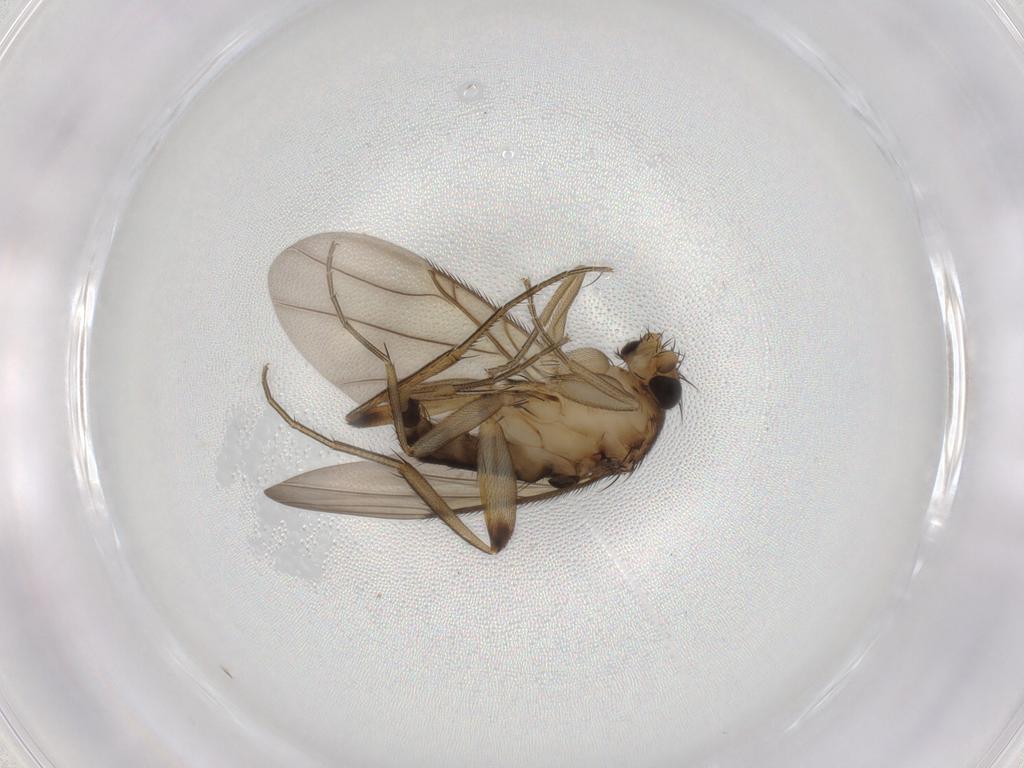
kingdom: Animalia
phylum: Arthropoda
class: Insecta
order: Diptera
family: Phoridae
